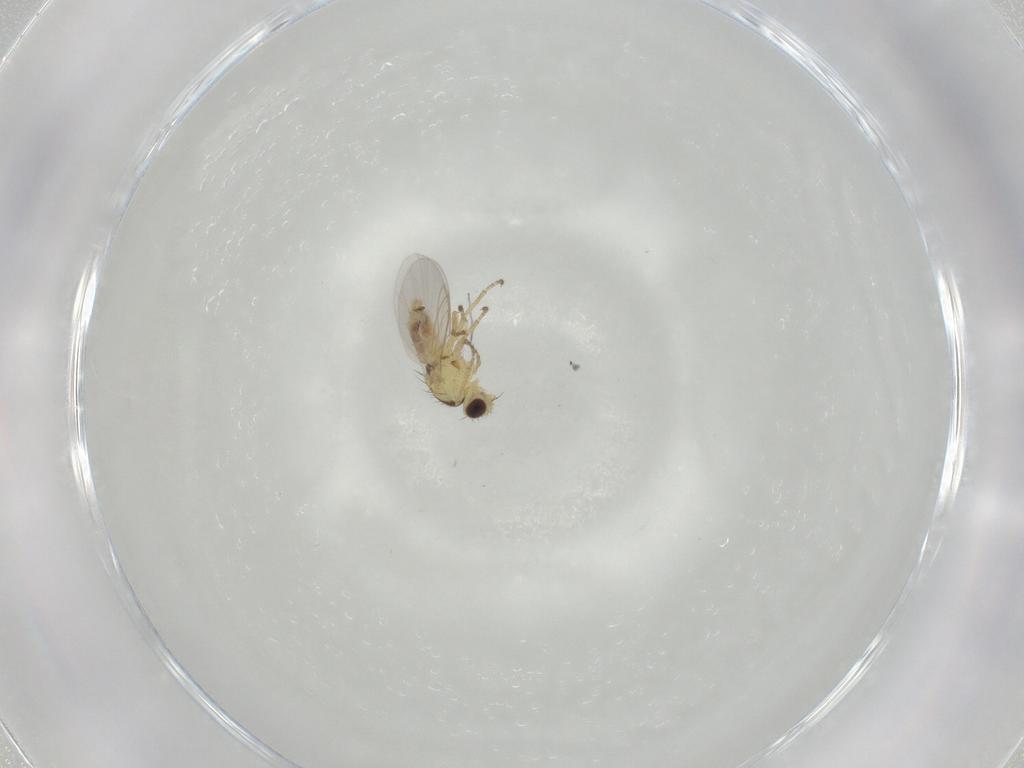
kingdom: Animalia
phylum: Arthropoda
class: Insecta
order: Diptera
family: Agromyzidae
